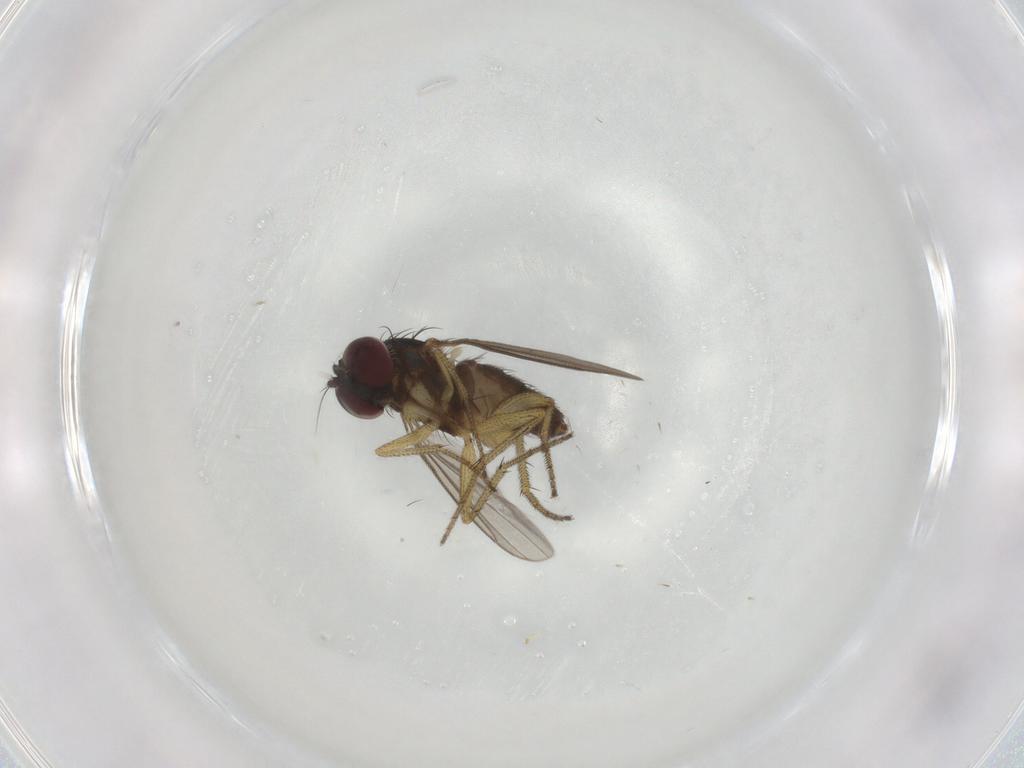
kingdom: Animalia
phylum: Arthropoda
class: Insecta
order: Diptera
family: Dolichopodidae
